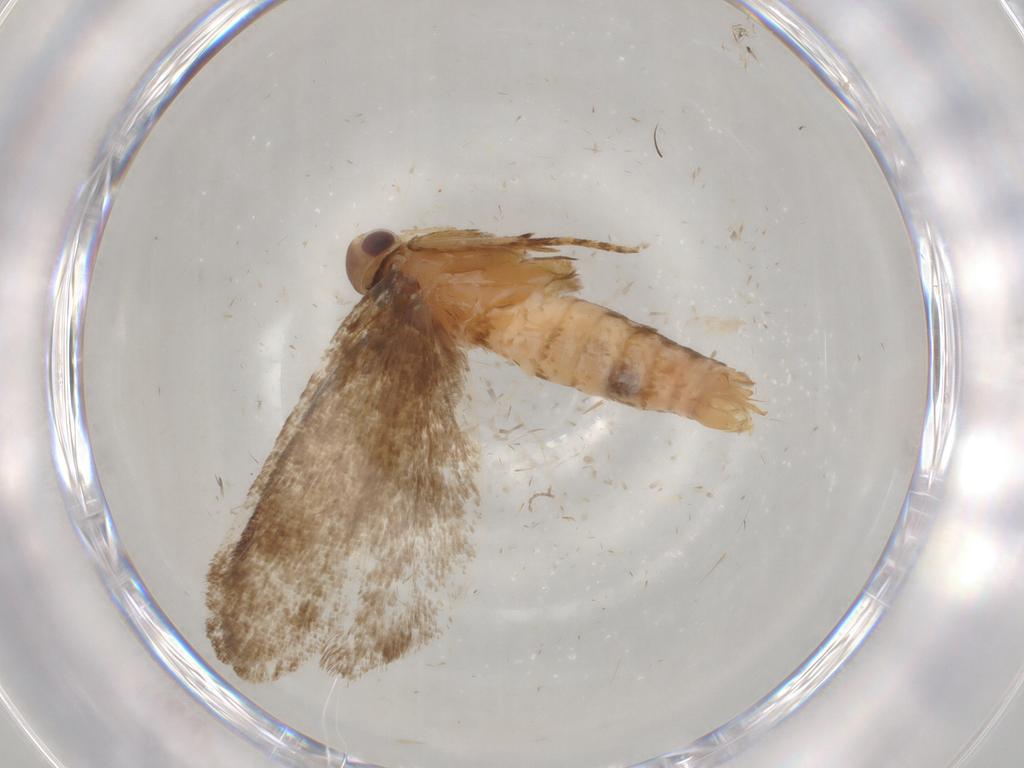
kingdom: Animalia
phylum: Arthropoda
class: Insecta
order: Lepidoptera
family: Gelechiidae
